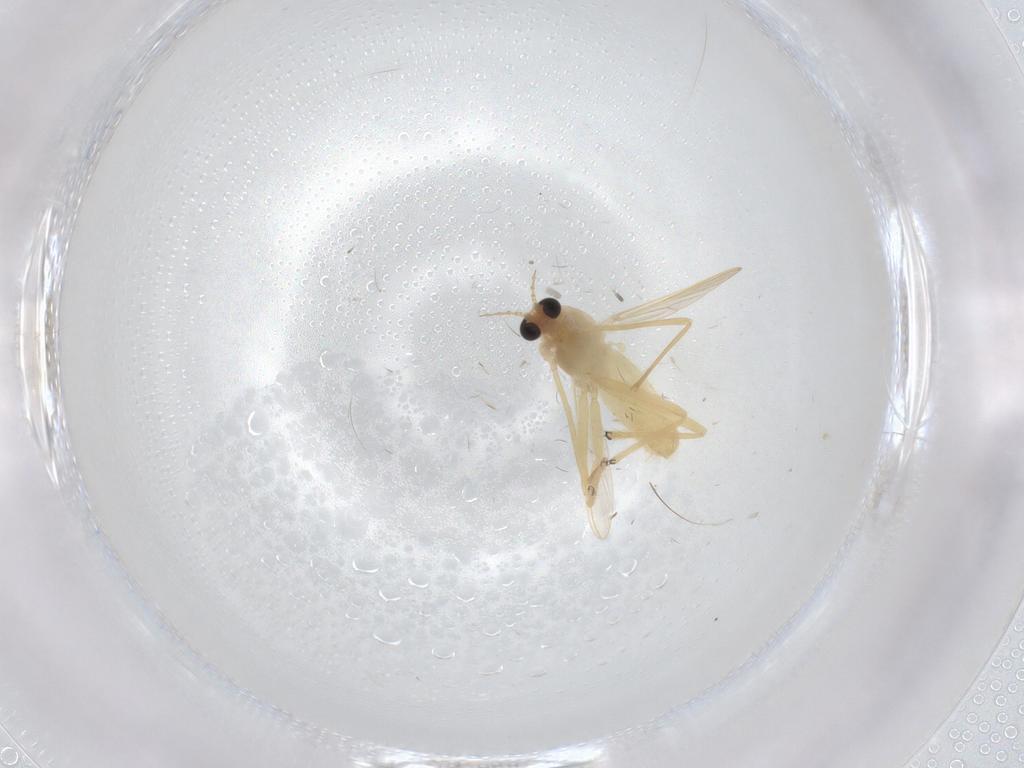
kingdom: Animalia
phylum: Arthropoda
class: Insecta
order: Diptera
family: Chironomidae
